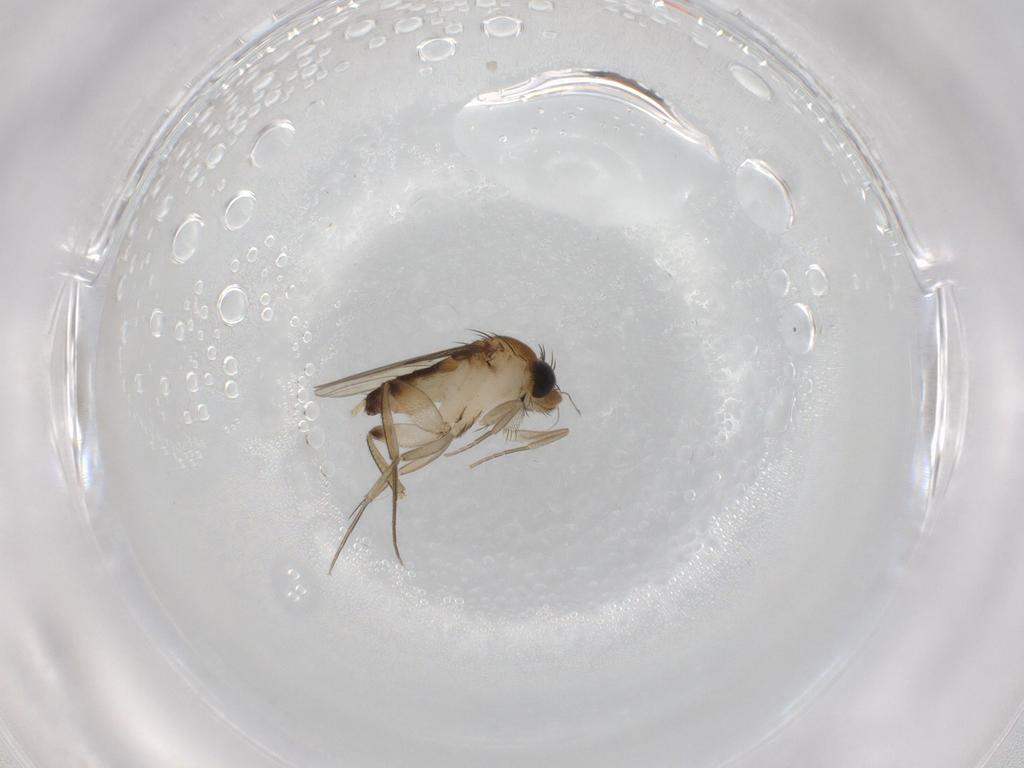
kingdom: Animalia
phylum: Arthropoda
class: Insecta
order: Diptera
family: Phoridae
